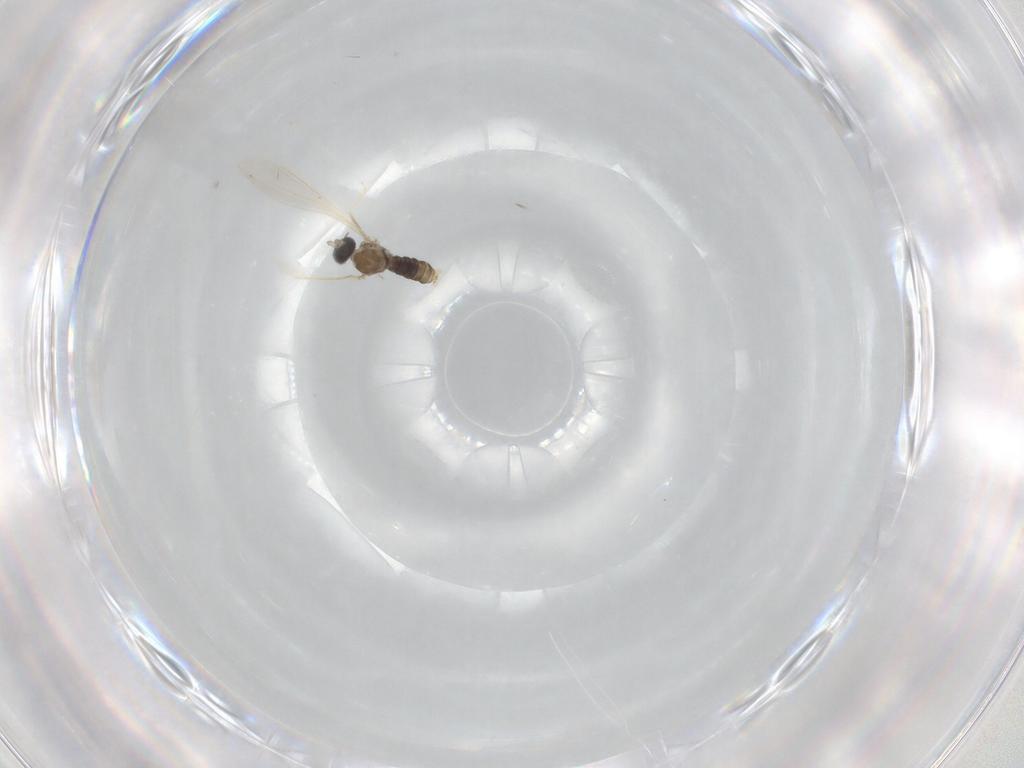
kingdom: Animalia
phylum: Arthropoda
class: Insecta
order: Diptera
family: Cecidomyiidae
